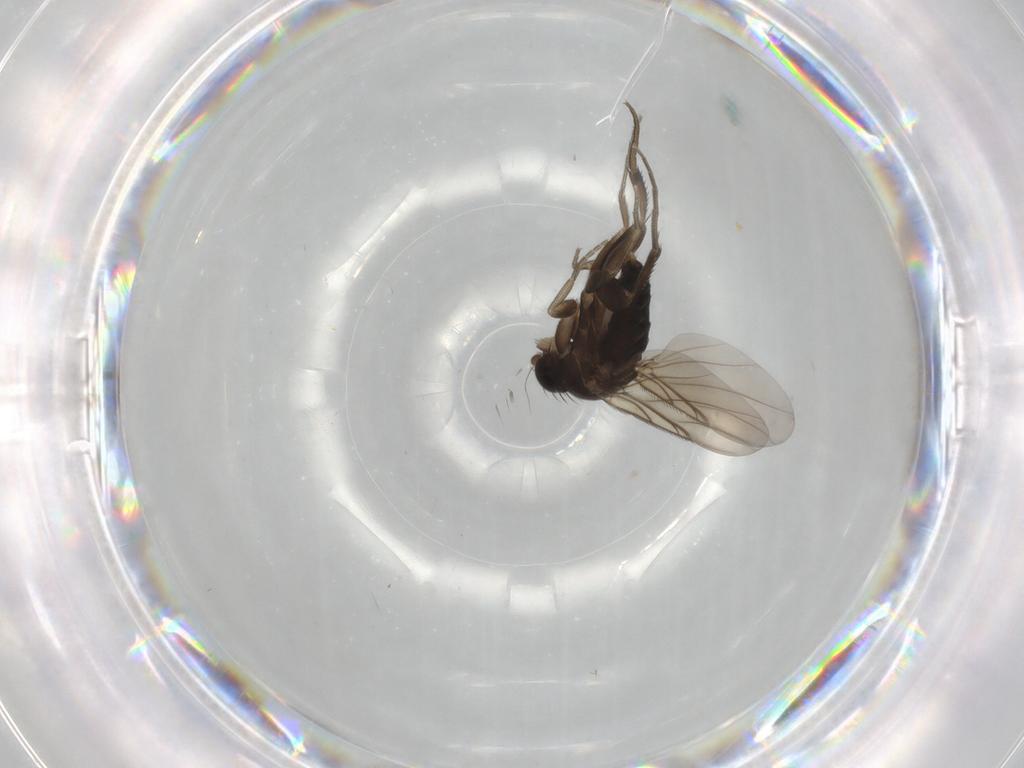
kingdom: Animalia
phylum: Arthropoda
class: Insecta
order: Diptera
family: Phoridae
